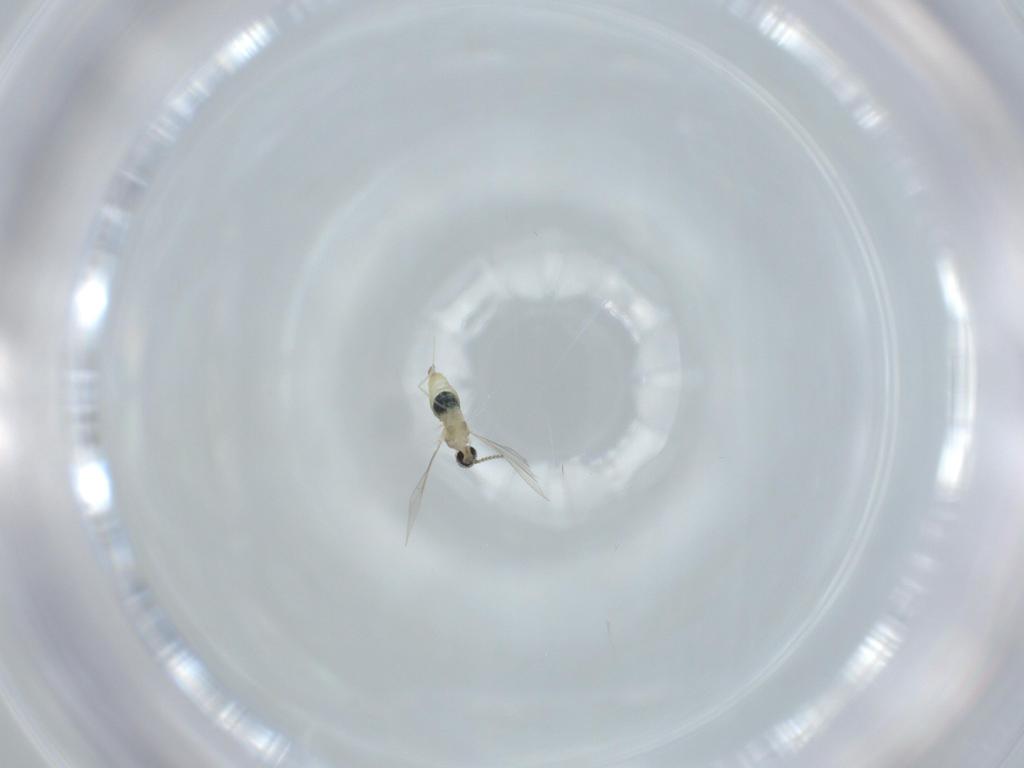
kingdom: Animalia
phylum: Arthropoda
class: Insecta
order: Diptera
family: Cecidomyiidae
